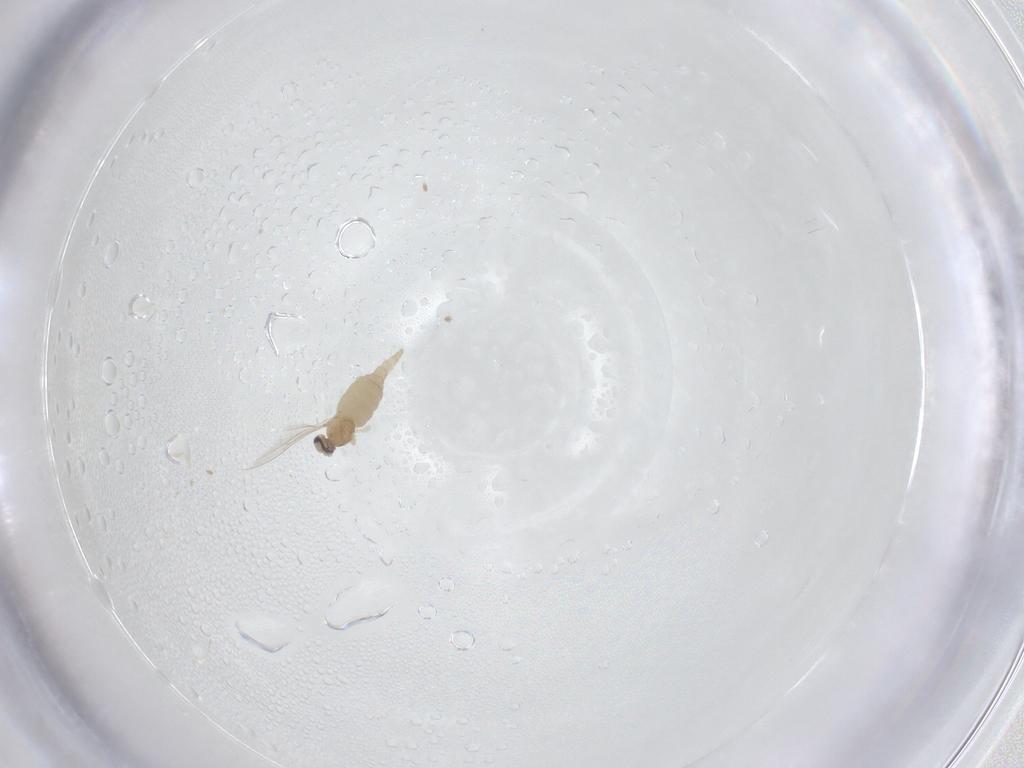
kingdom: Animalia
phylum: Arthropoda
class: Insecta
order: Diptera
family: Cecidomyiidae
